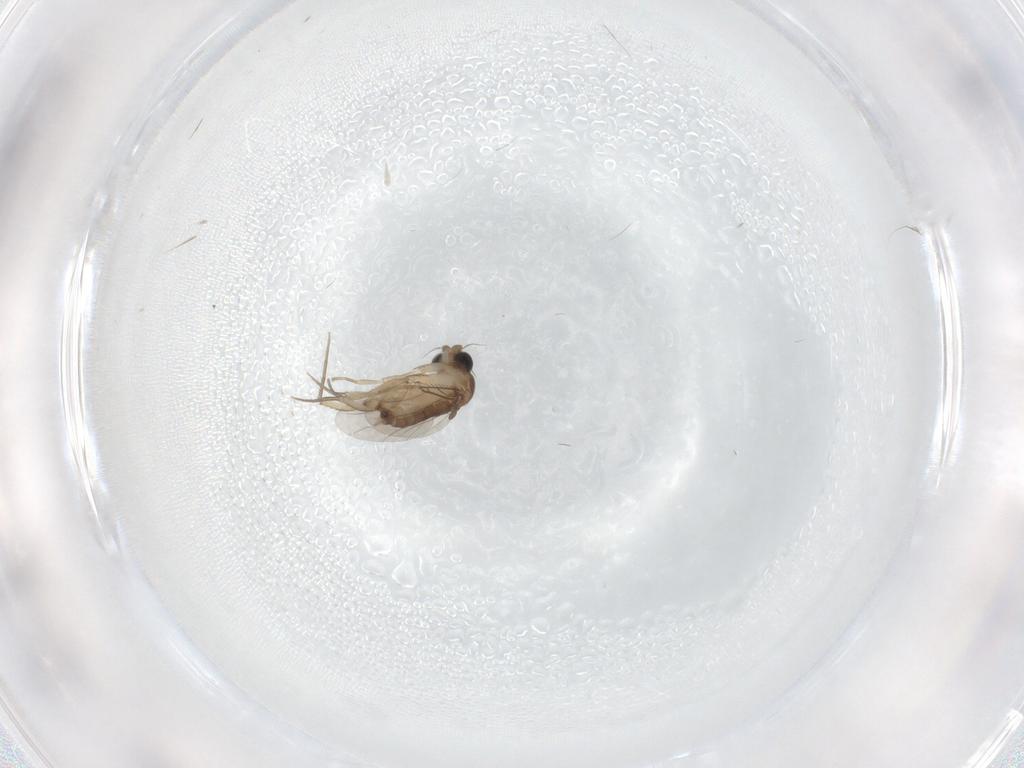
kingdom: Animalia
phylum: Arthropoda
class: Insecta
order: Diptera
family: Phoridae
